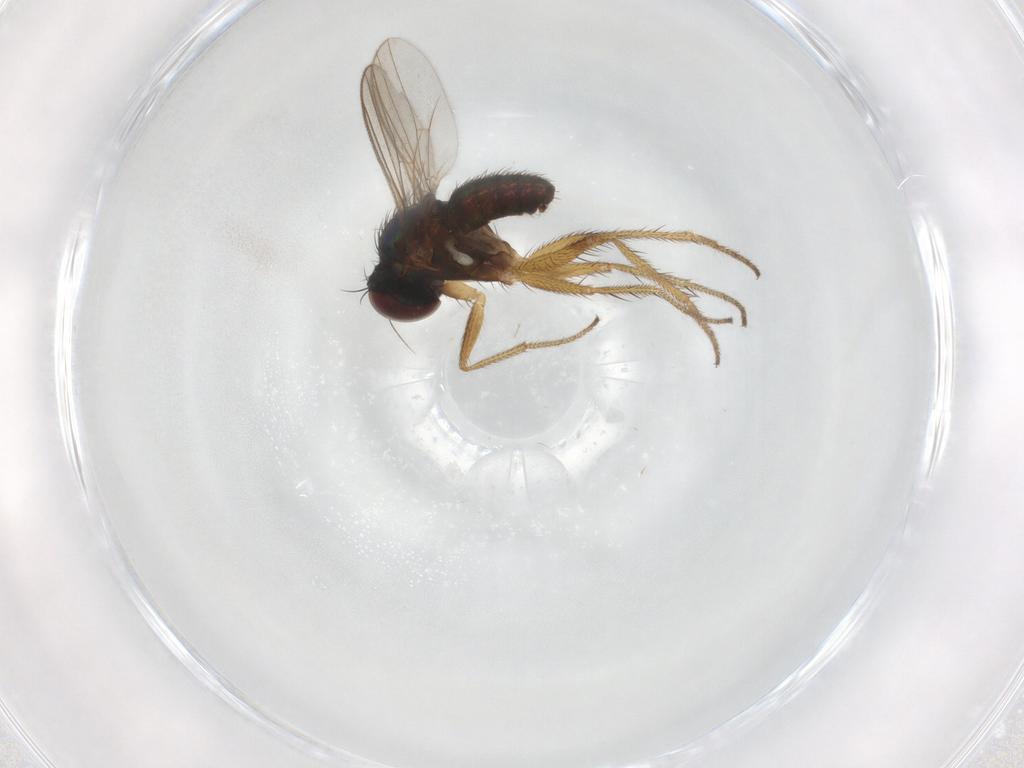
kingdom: Animalia
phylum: Arthropoda
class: Insecta
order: Diptera
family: Dolichopodidae
